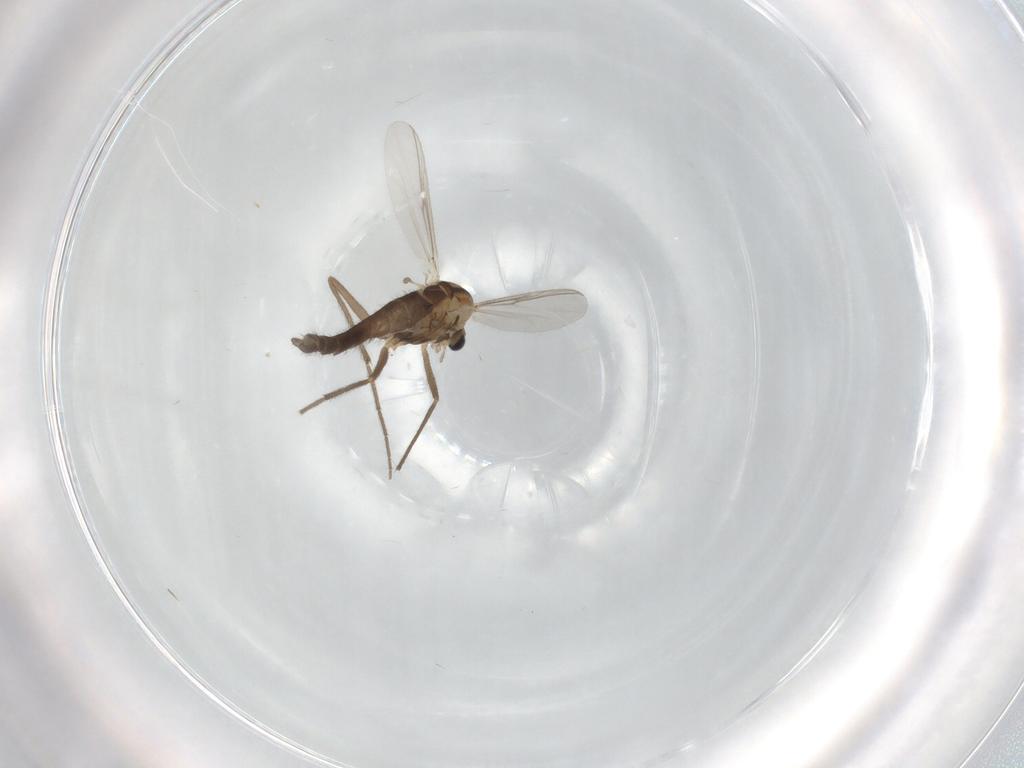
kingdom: Animalia
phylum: Arthropoda
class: Insecta
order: Diptera
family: Chironomidae
